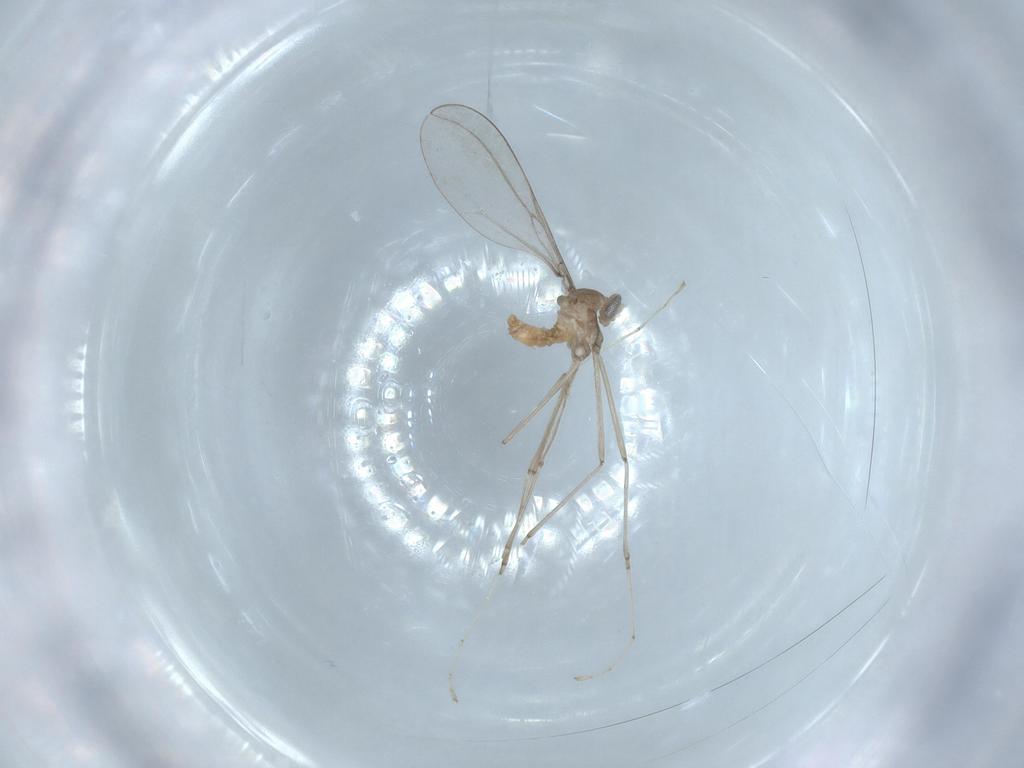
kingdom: Animalia
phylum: Arthropoda
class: Insecta
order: Diptera
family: Cecidomyiidae
